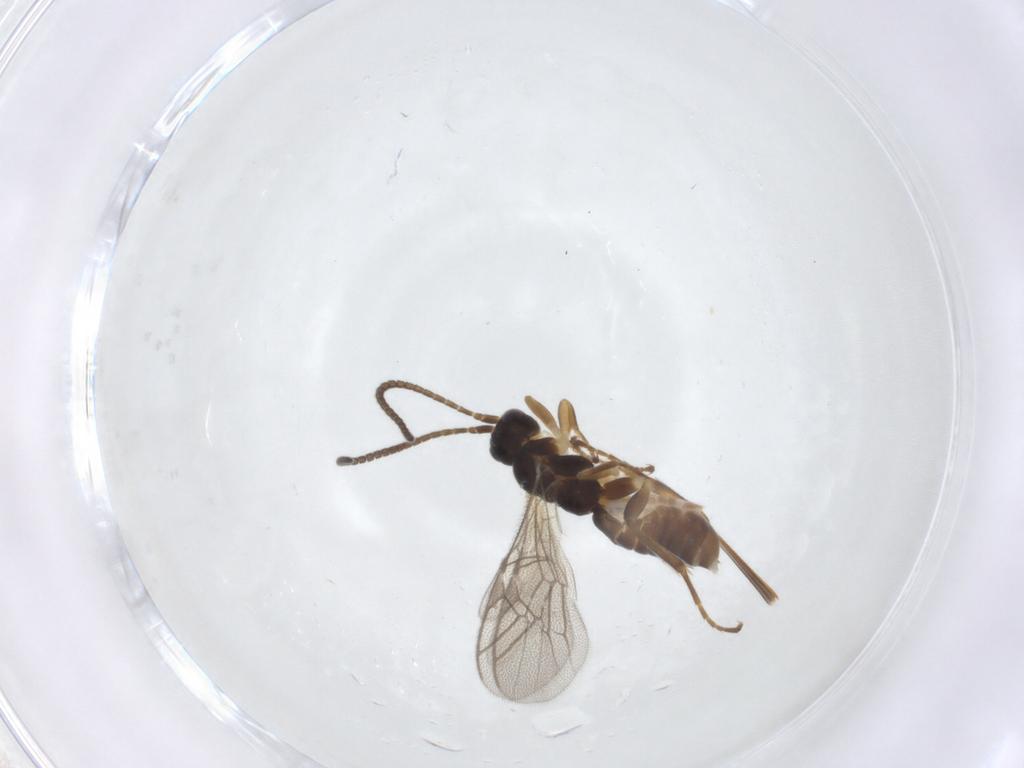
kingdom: Animalia
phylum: Arthropoda
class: Insecta
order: Hymenoptera
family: Ichneumonidae
